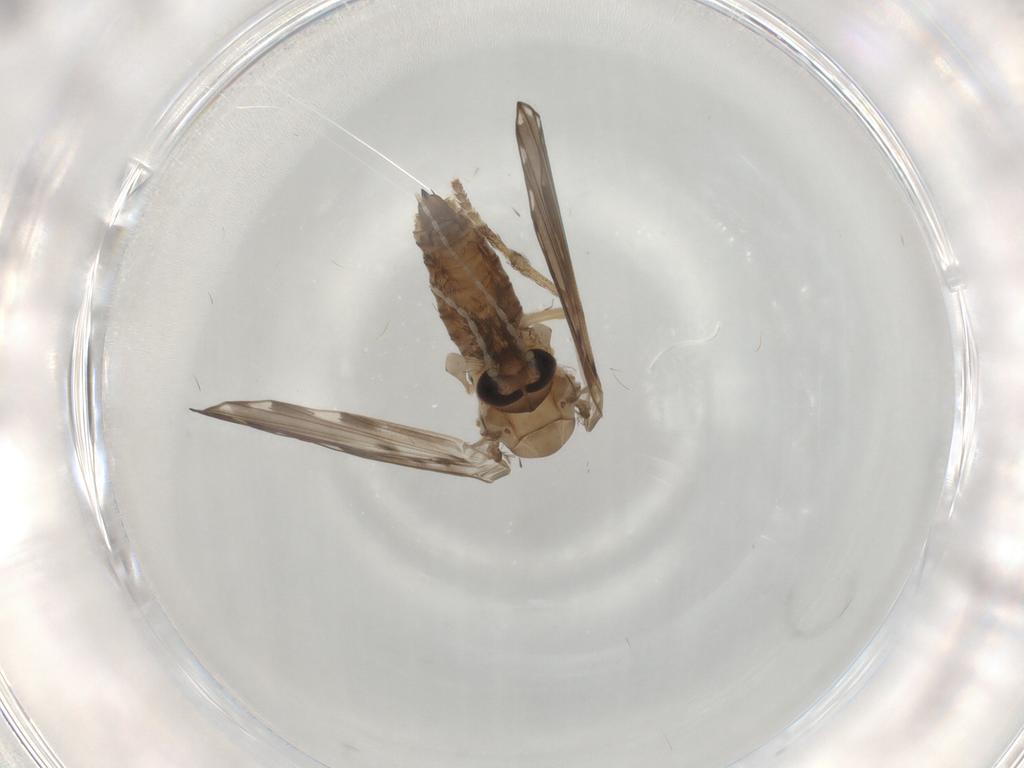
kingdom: Animalia
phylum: Arthropoda
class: Insecta
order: Diptera
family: Psychodidae
